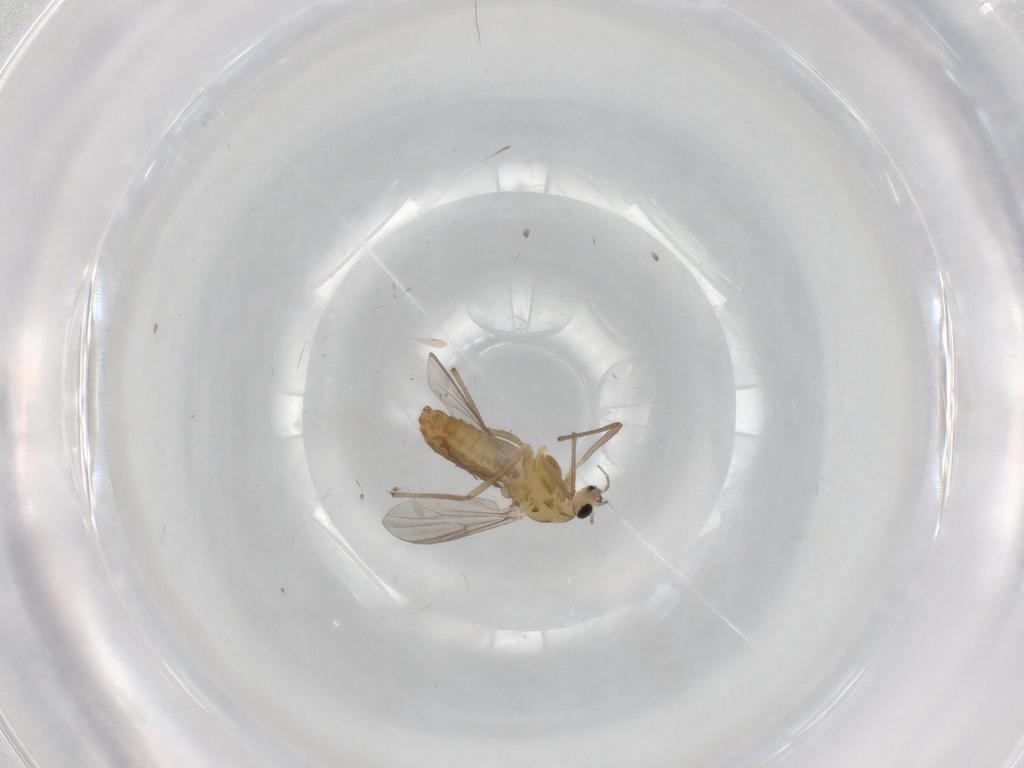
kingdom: Animalia
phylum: Arthropoda
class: Insecta
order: Diptera
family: Chironomidae
